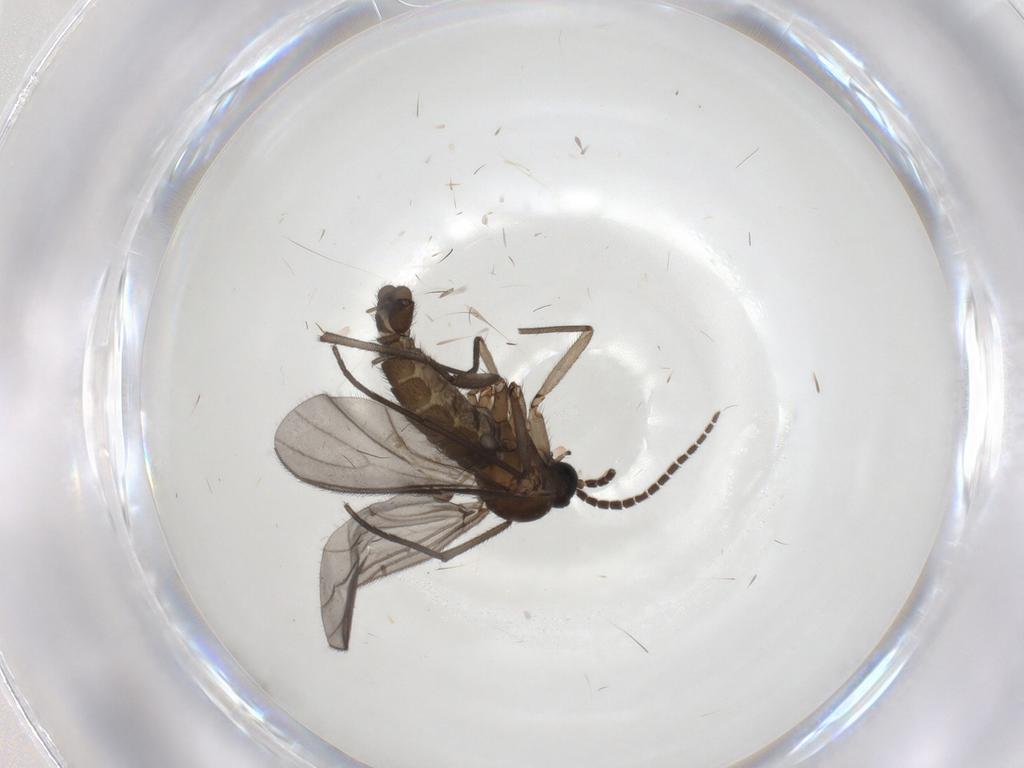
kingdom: Animalia
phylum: Arthropoda
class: Insecta
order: Diptera
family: Sciaridae
